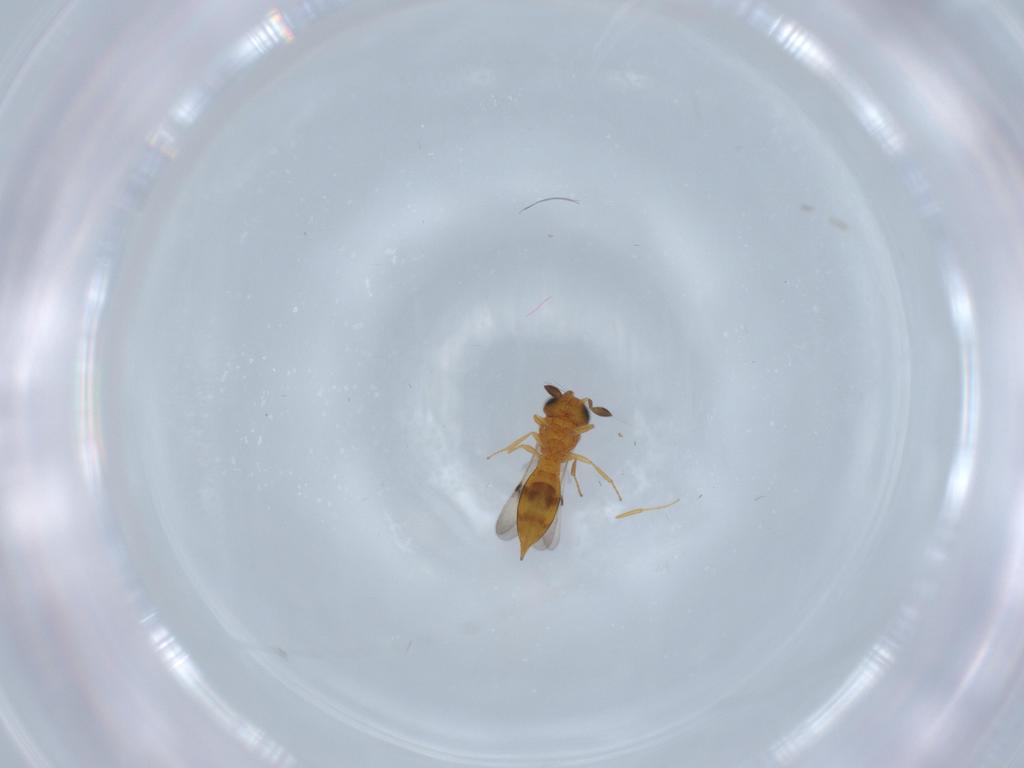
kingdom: Animalia
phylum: Arthropoda
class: Insecta
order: Hymenoptera
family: Scelionidae
